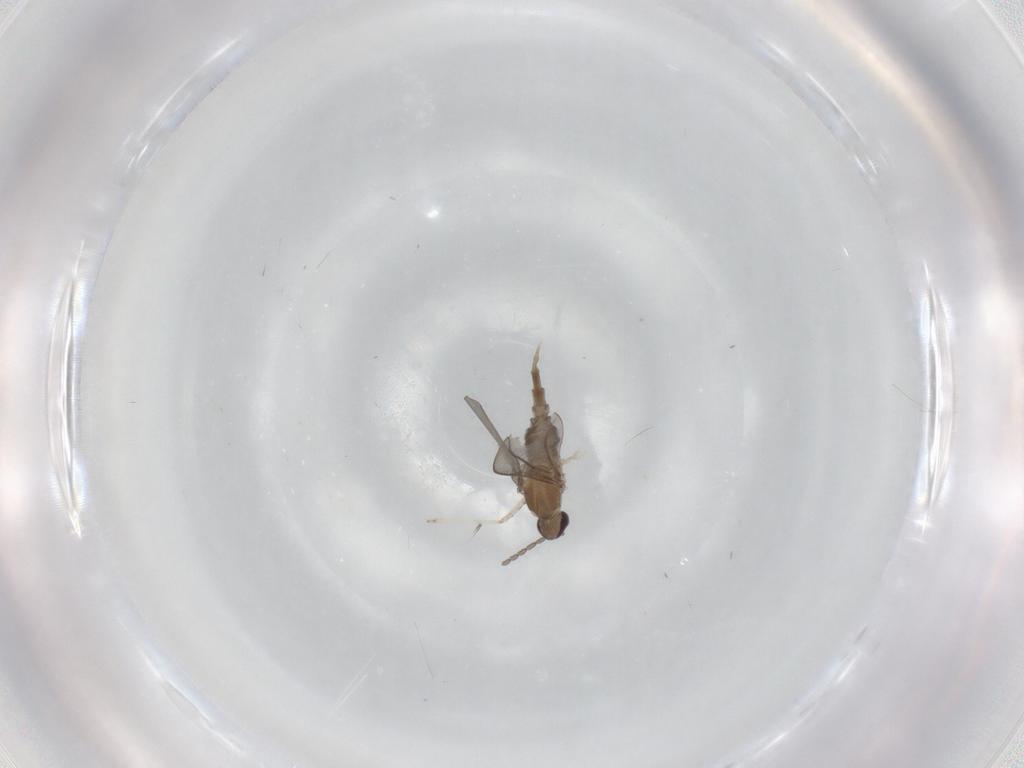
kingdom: Animalia
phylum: Arthropoda
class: Insecta
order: Diptera
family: Cecidomyiidae
